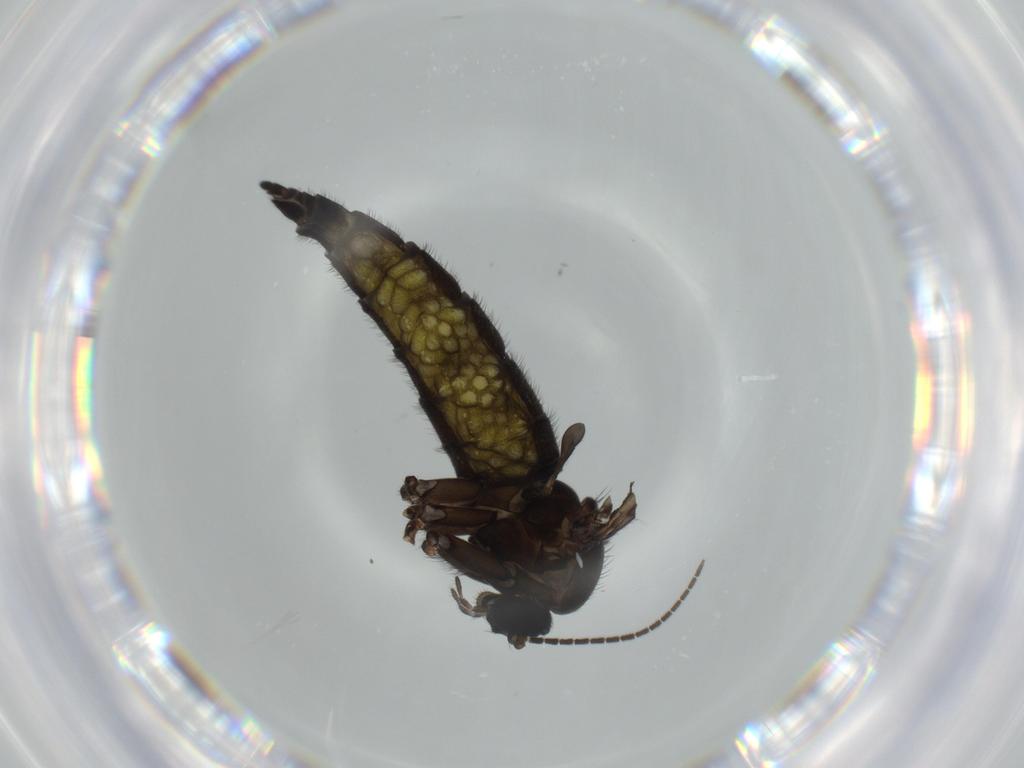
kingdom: Animalia
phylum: Arthropoda
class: Insecta
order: Diptera
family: Sciaridae
